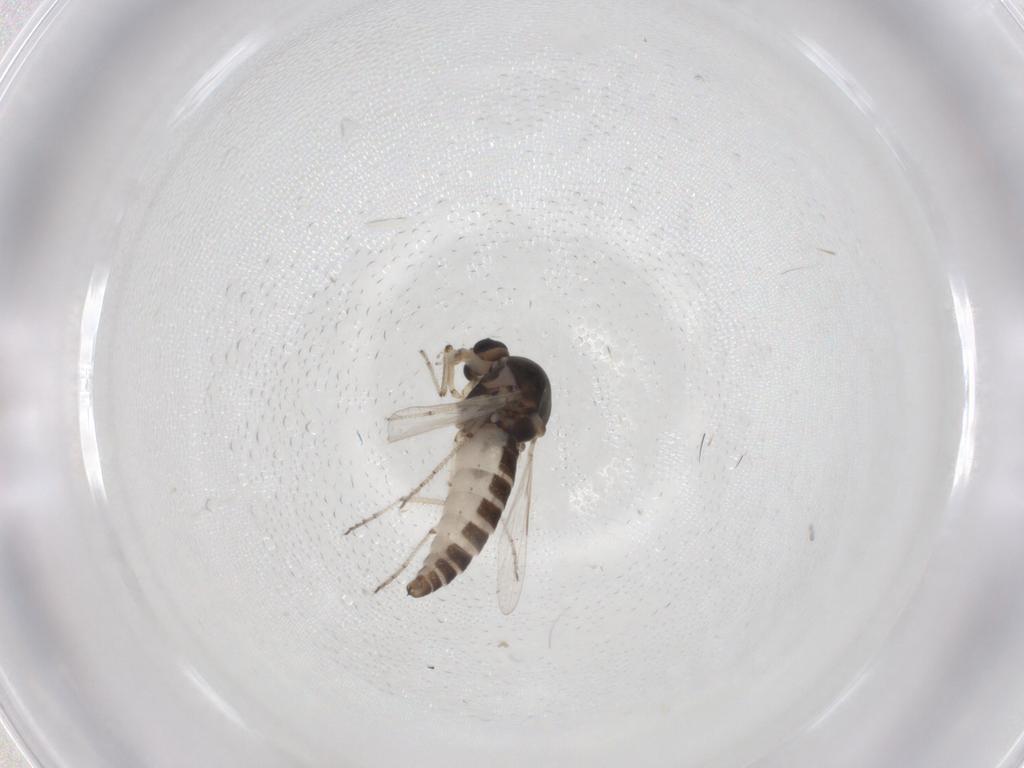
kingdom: Animalia
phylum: Arthropoda
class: Insecta
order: Diptera
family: Ceratopogonidae
